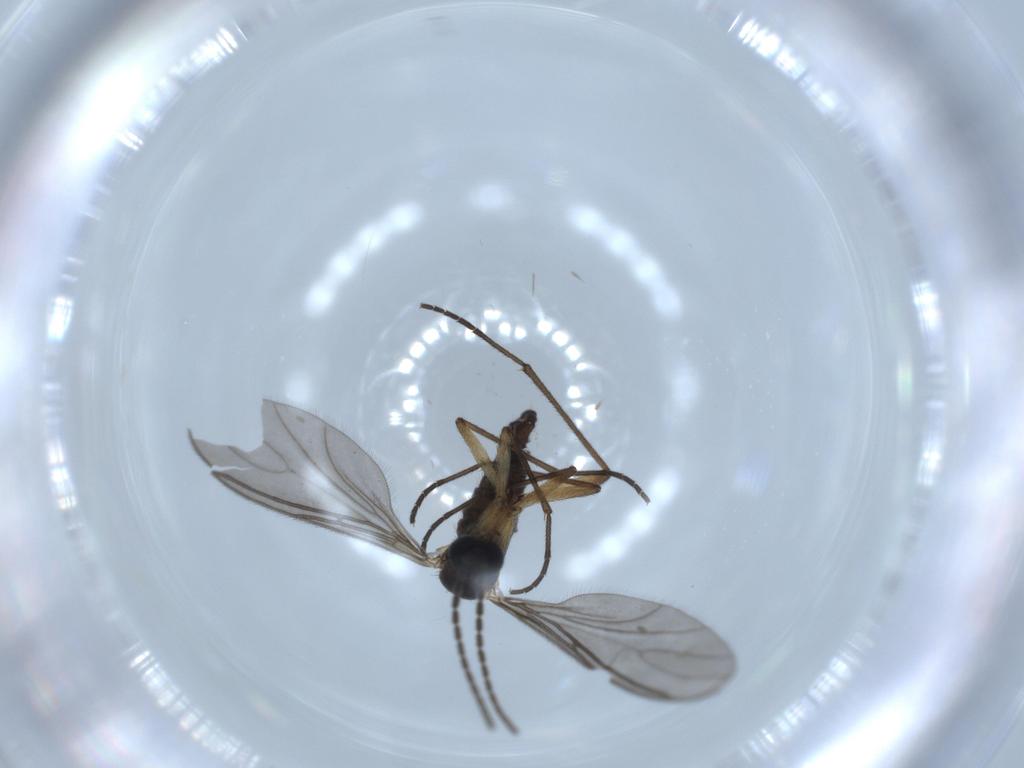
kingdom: Animalia
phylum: Arthropoda
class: Insecta
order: Diptera
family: Sciaridae
